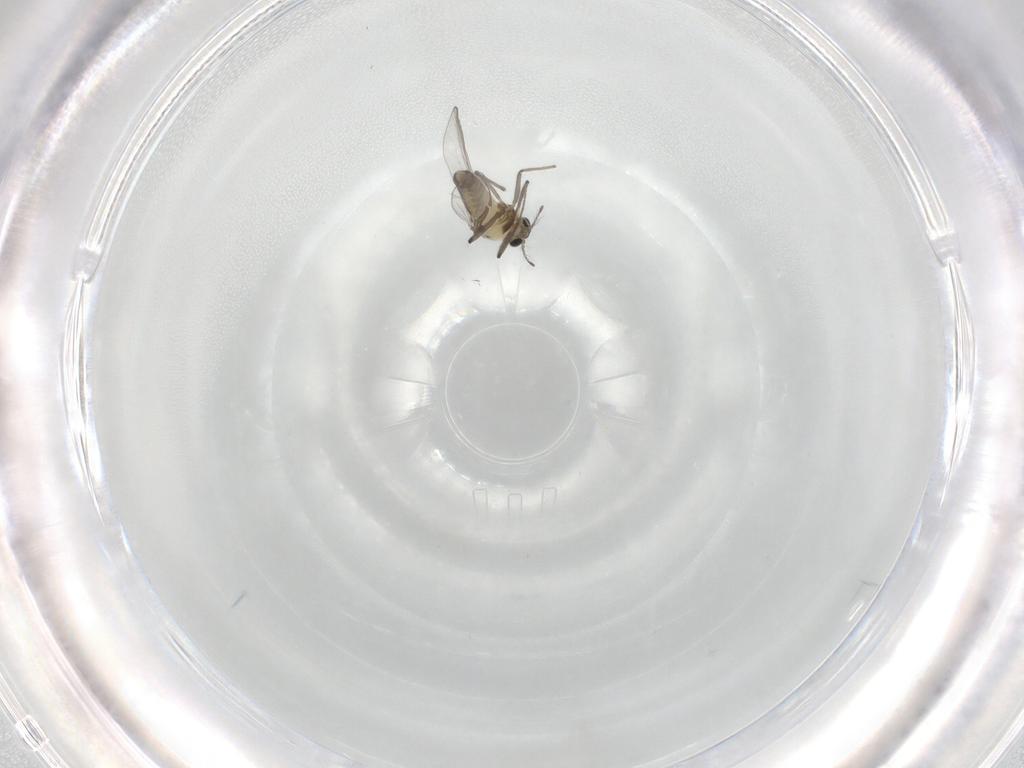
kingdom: Animalia
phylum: Arthropoda
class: Insecta
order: Diptera
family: Chironomidae
